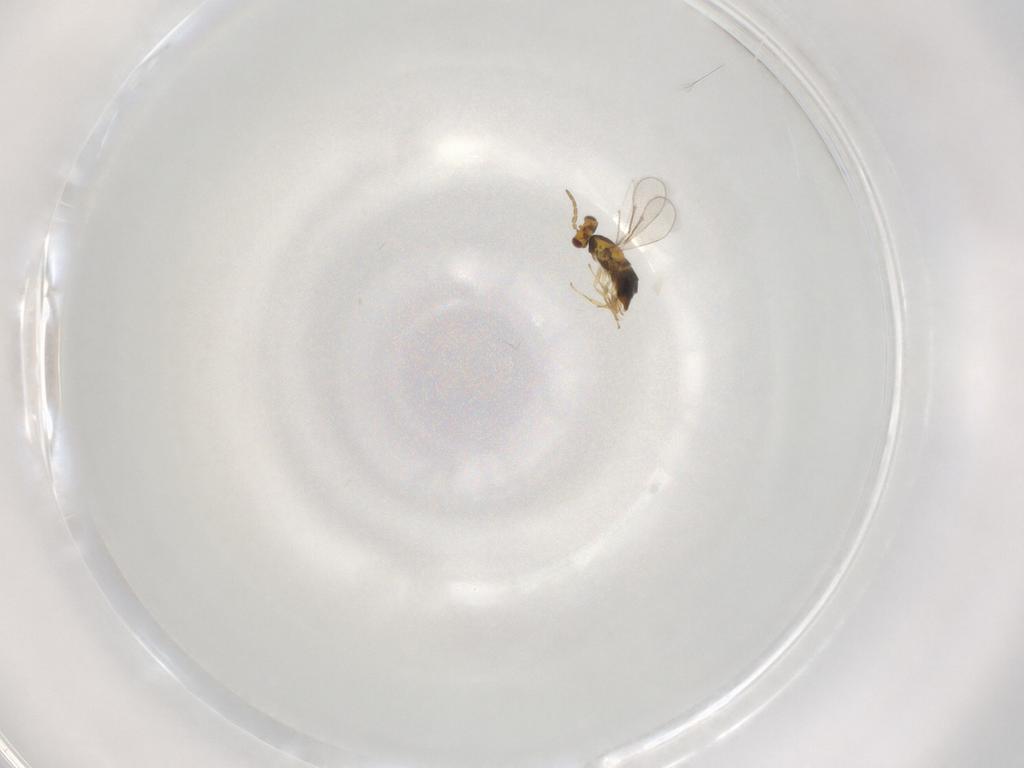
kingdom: Animalia
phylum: Arthropoda
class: Insecta
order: Hymenoptera
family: Aphelinidae
